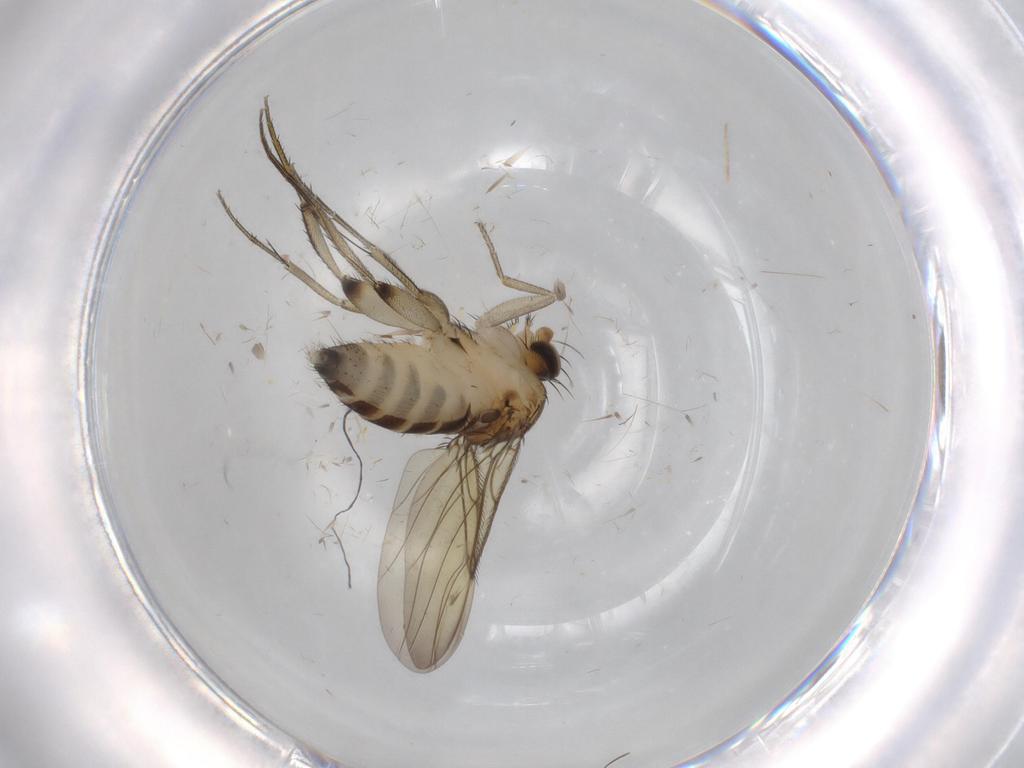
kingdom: Animalia
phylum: Arthropoda
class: Insecta
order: Diptera
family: Phoridae
